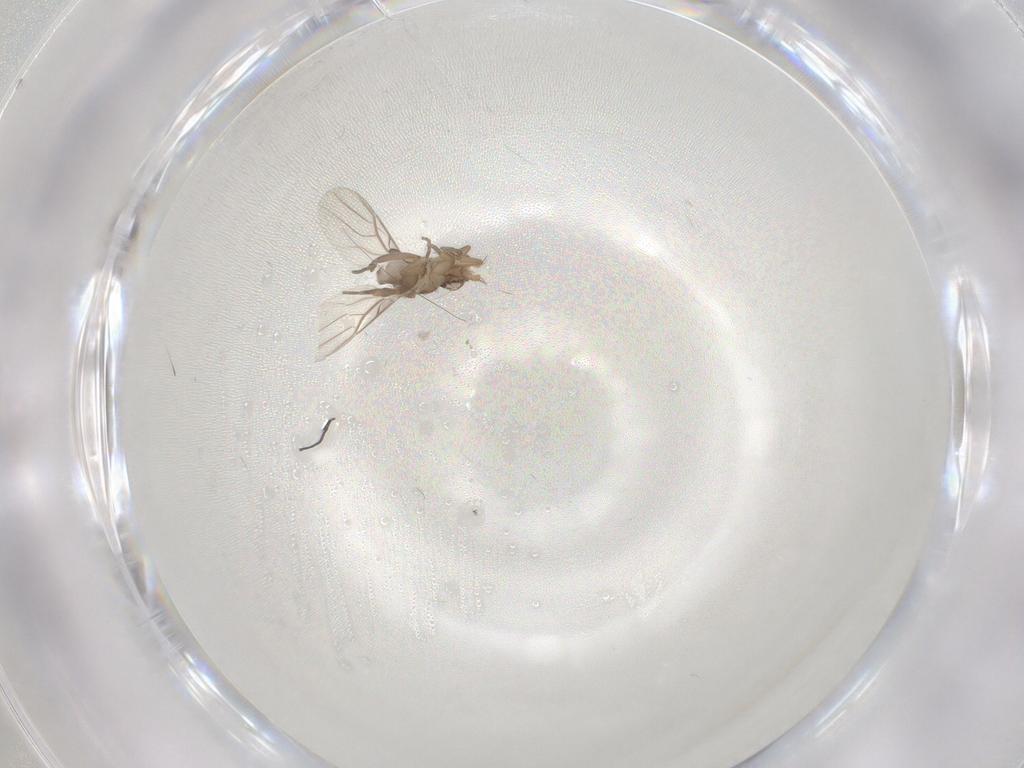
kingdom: Animalia
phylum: Arthropoda
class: Insecta
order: Diptera
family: Phoridae
